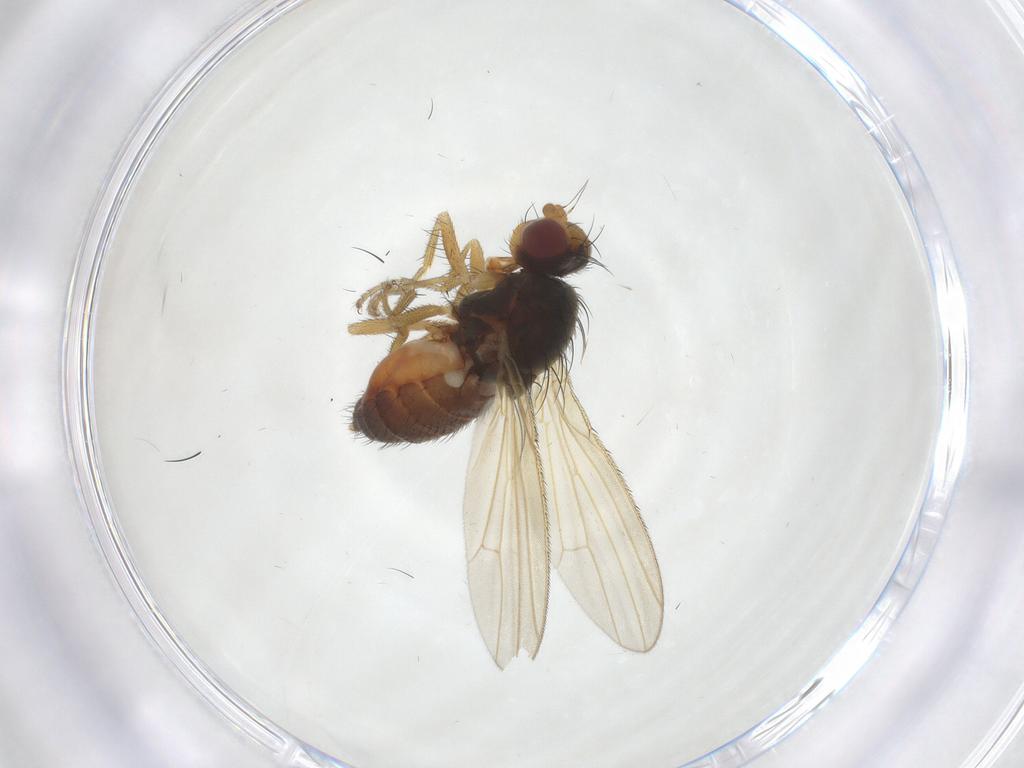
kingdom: Animalia
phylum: Arthropoda
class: Insecta
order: Diptera
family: Heleomyzidae
